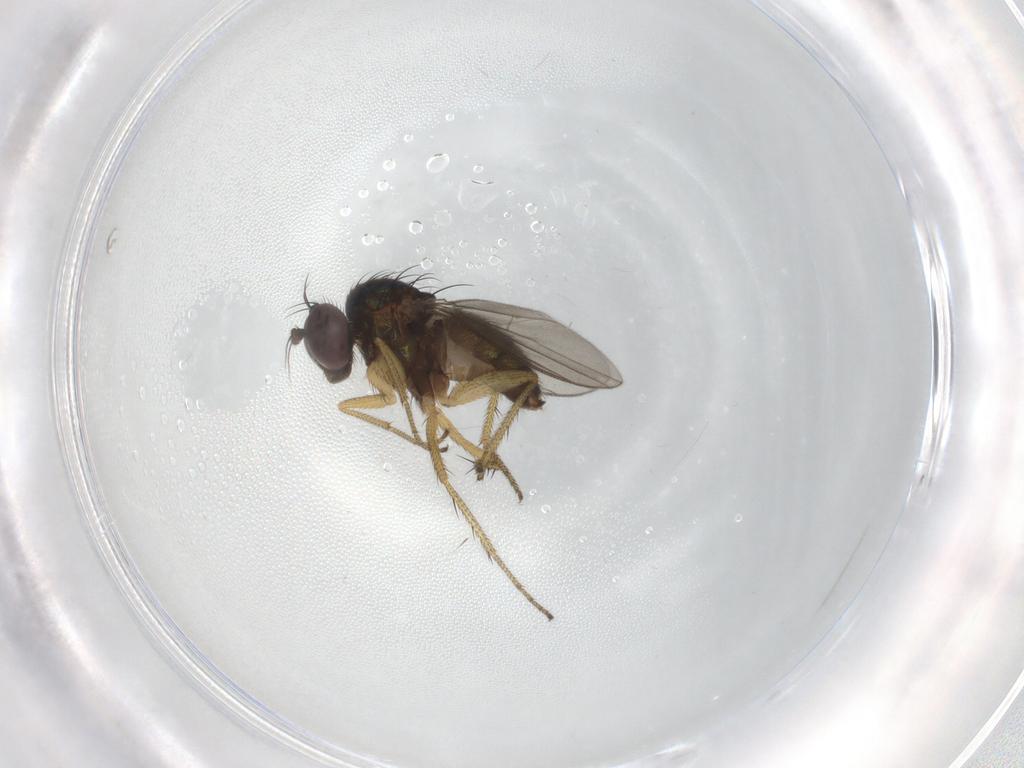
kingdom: Animalia
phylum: Arthropoda
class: Insecta
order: Diptera
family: Dolichopodidae
